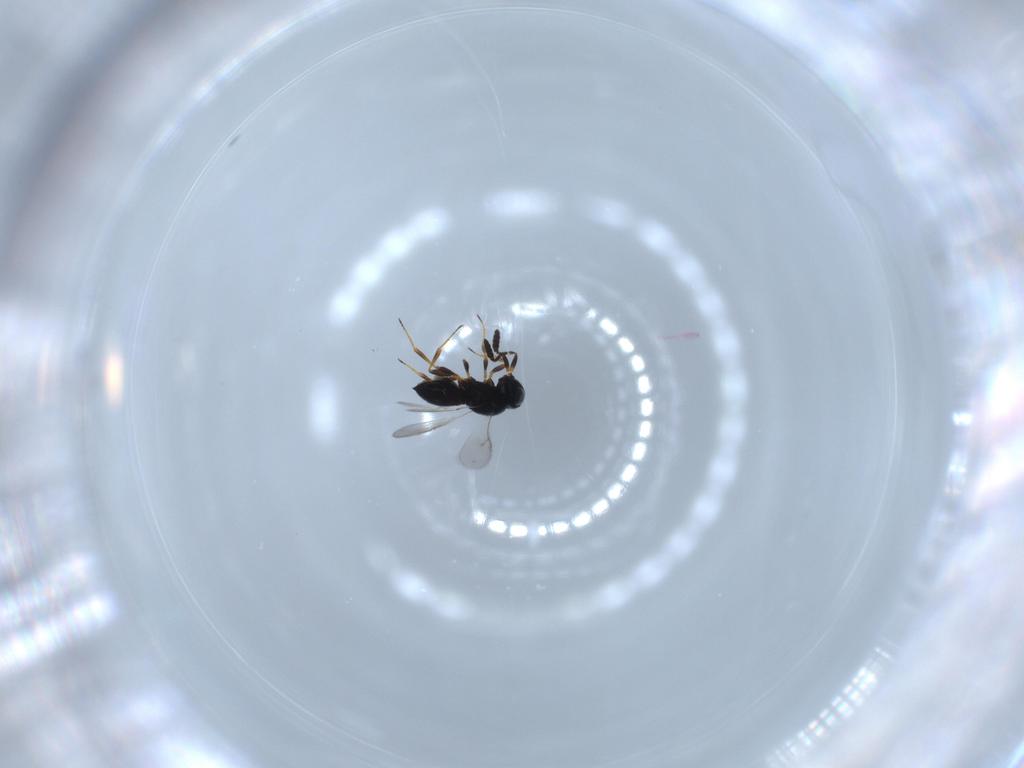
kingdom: Animalia
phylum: Arthropoda
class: Insecta
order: Hymenoptera
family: Scelionidae
